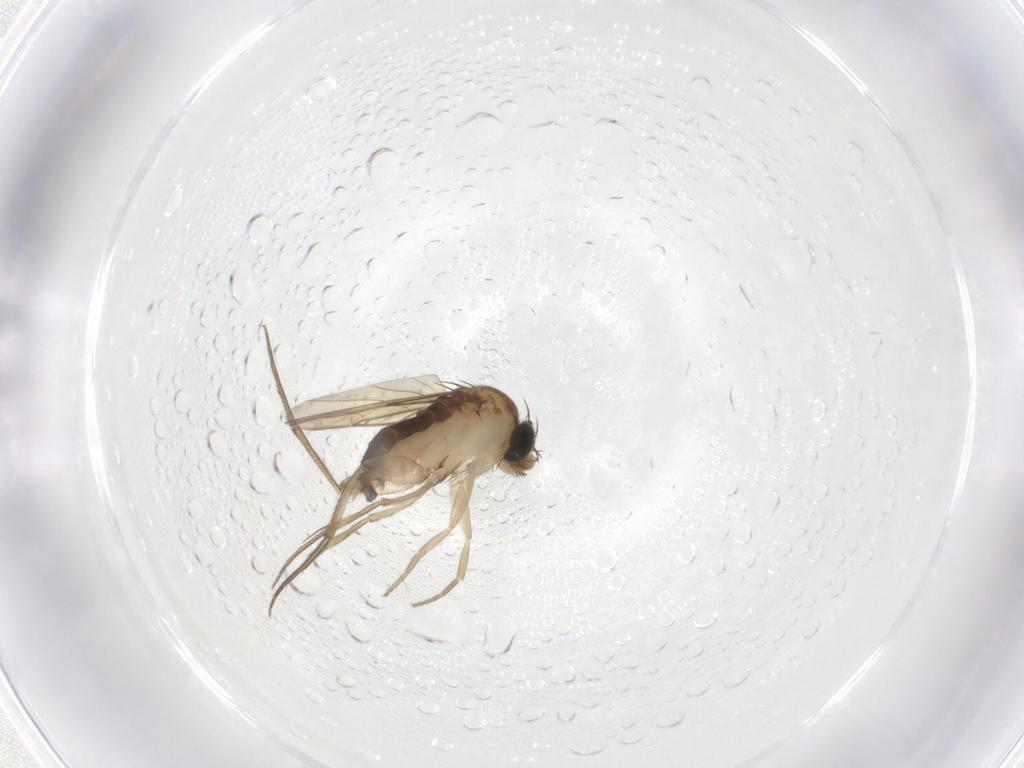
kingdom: Animalia
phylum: Arthropoda
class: Insecta
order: Diptera
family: Phoridae
